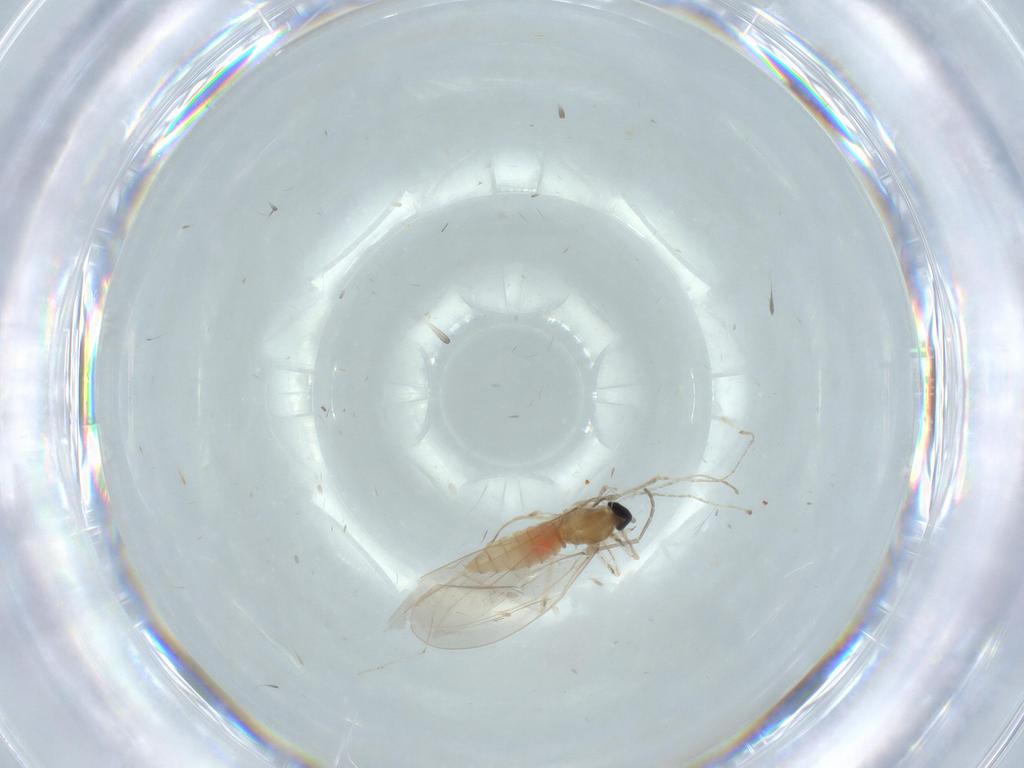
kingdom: Animalia
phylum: Arthropoda
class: Insecta
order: Diptera
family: Cecidomyiidae
